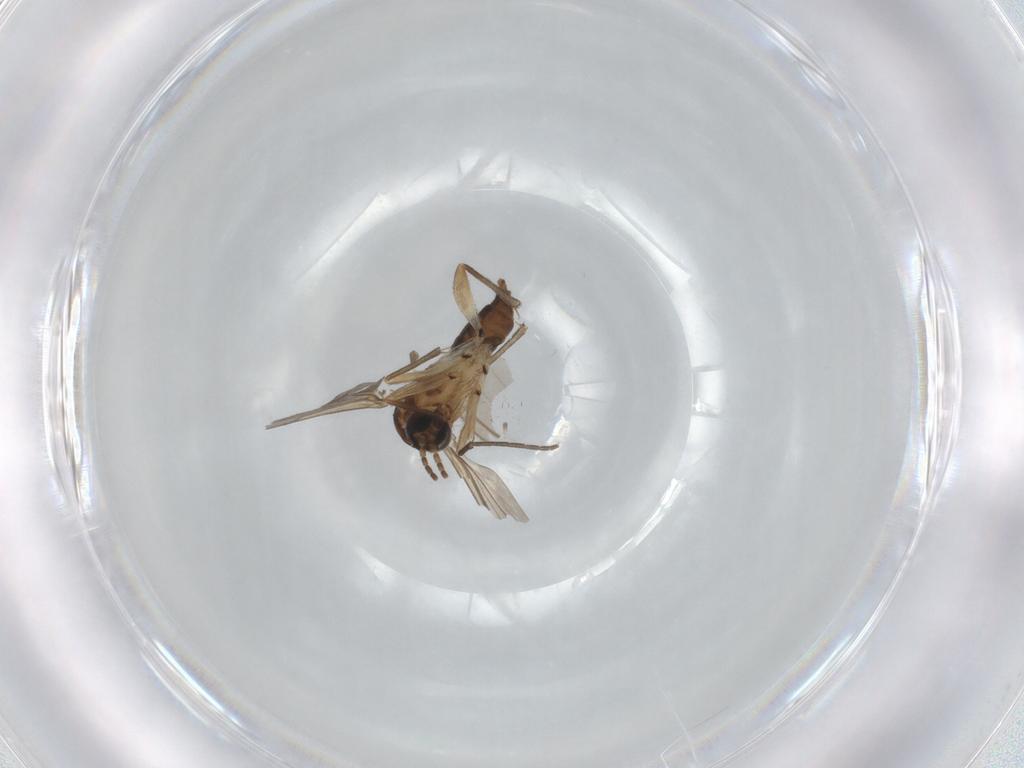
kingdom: Animalia
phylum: Arthropoda
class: Insecta
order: Diptera
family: Sciaridae
